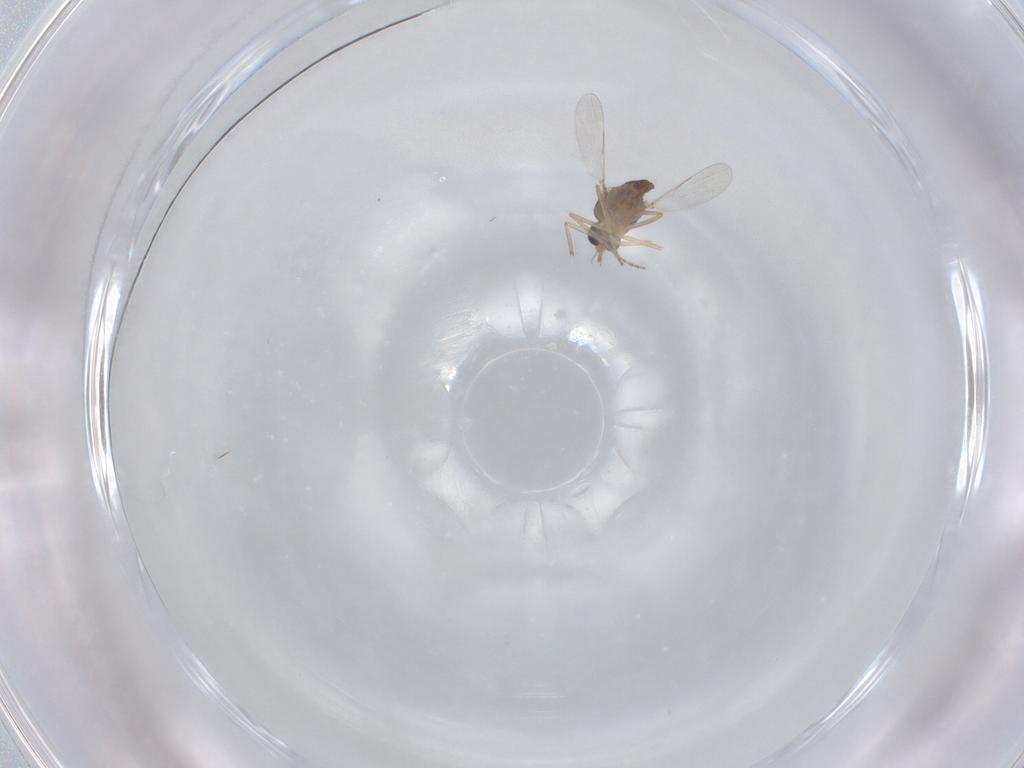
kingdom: Animalia
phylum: Arthropoda
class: Insecta
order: Diptera
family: Ceratopogonidae
